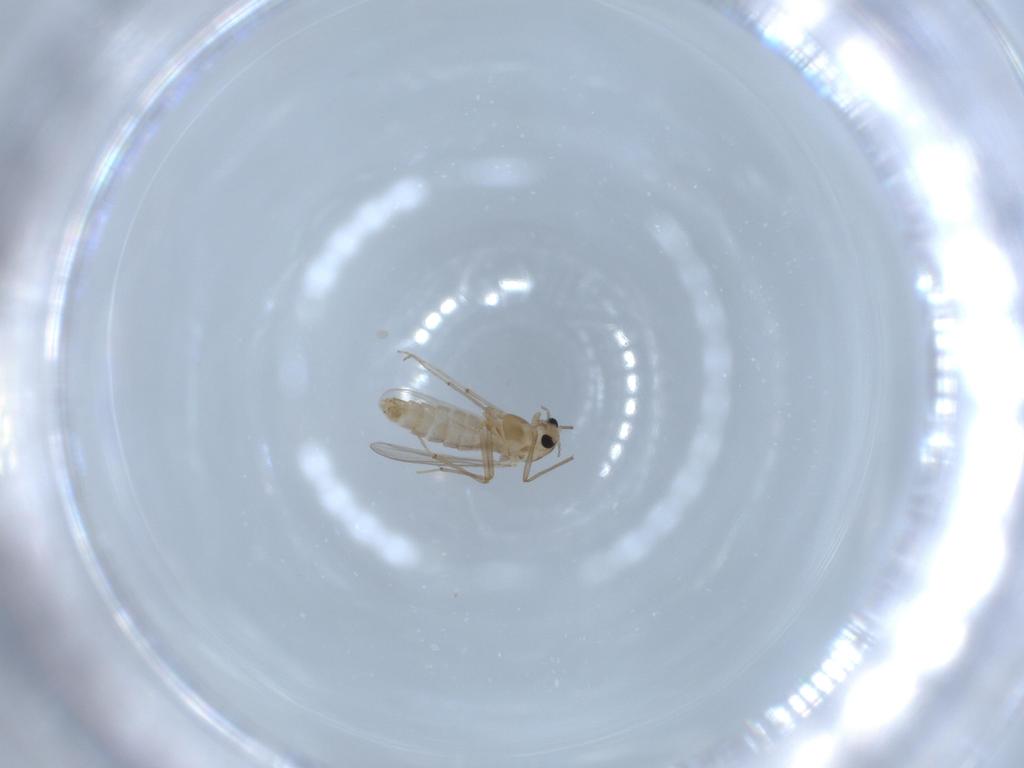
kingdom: Animalia
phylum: Arthropoda
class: Insecta
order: Diptera
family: Chironomidae
